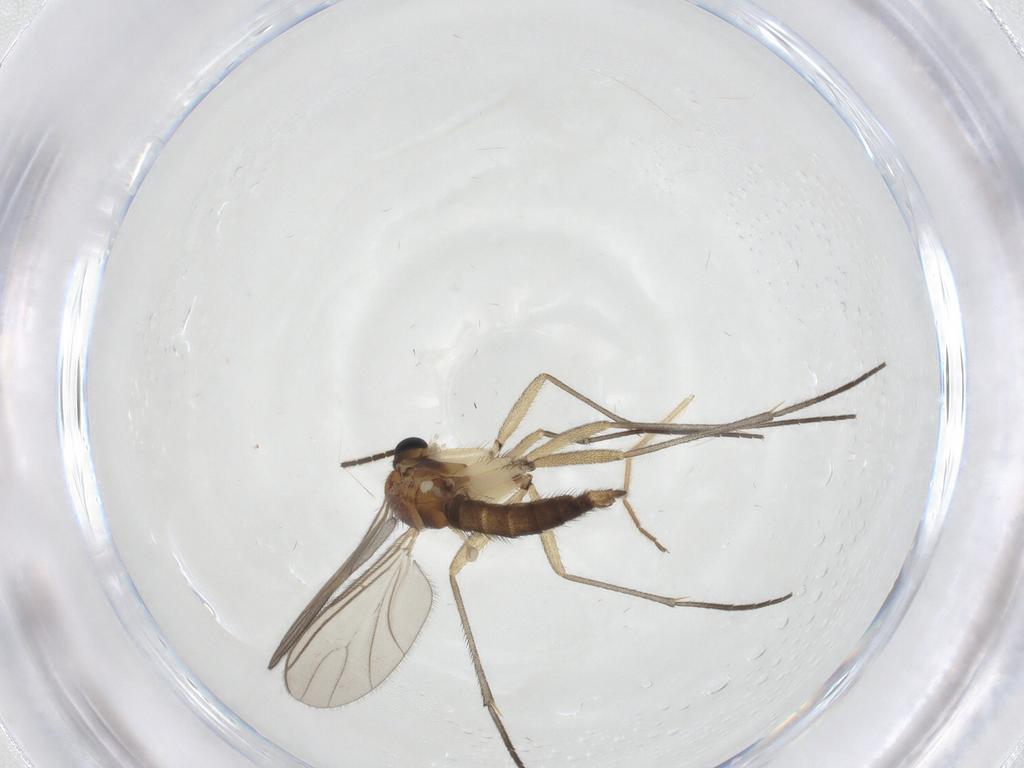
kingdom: Animalia
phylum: Arthropoda
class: Insecta
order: Diptera
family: Sciaridae
